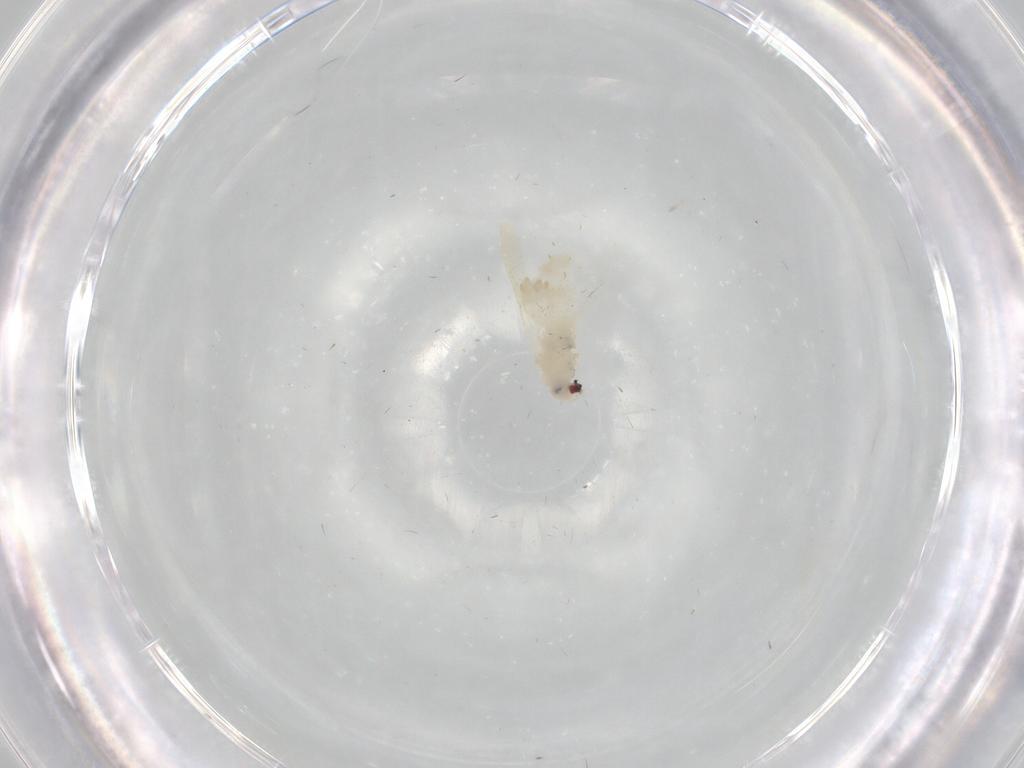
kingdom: Animalia
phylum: Arthropoda
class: Insecta
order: Hemiptera
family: Aleyrodidae
